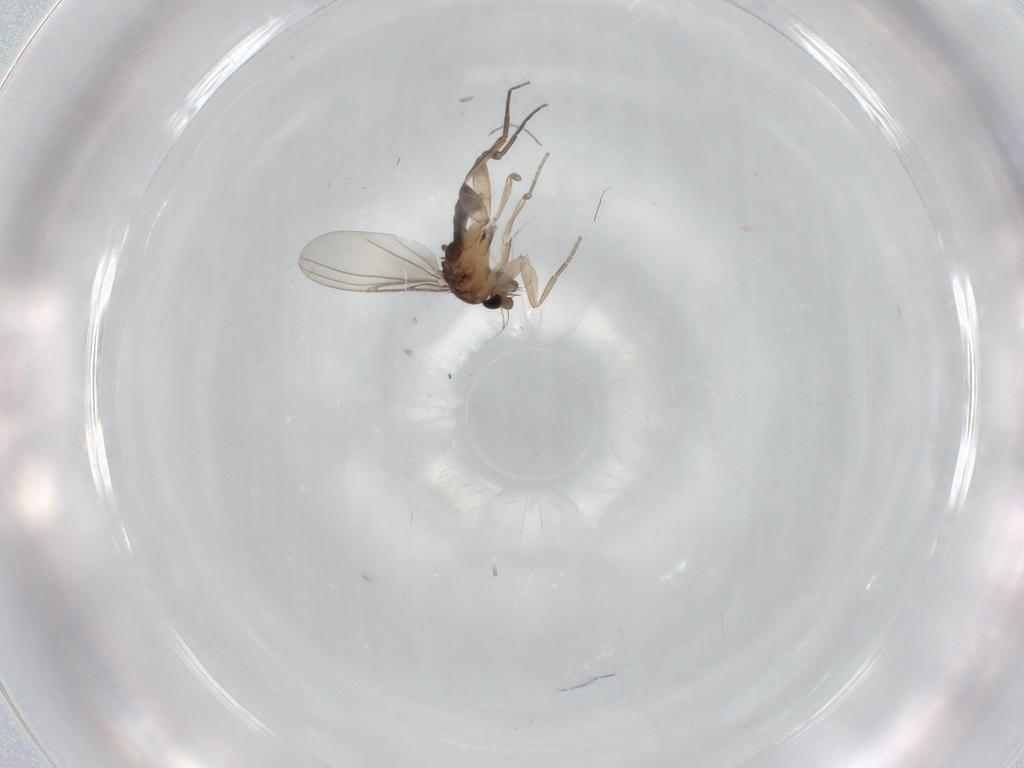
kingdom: Animalia
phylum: Arthropoda
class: Insecta
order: Diptera
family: Phoridae
